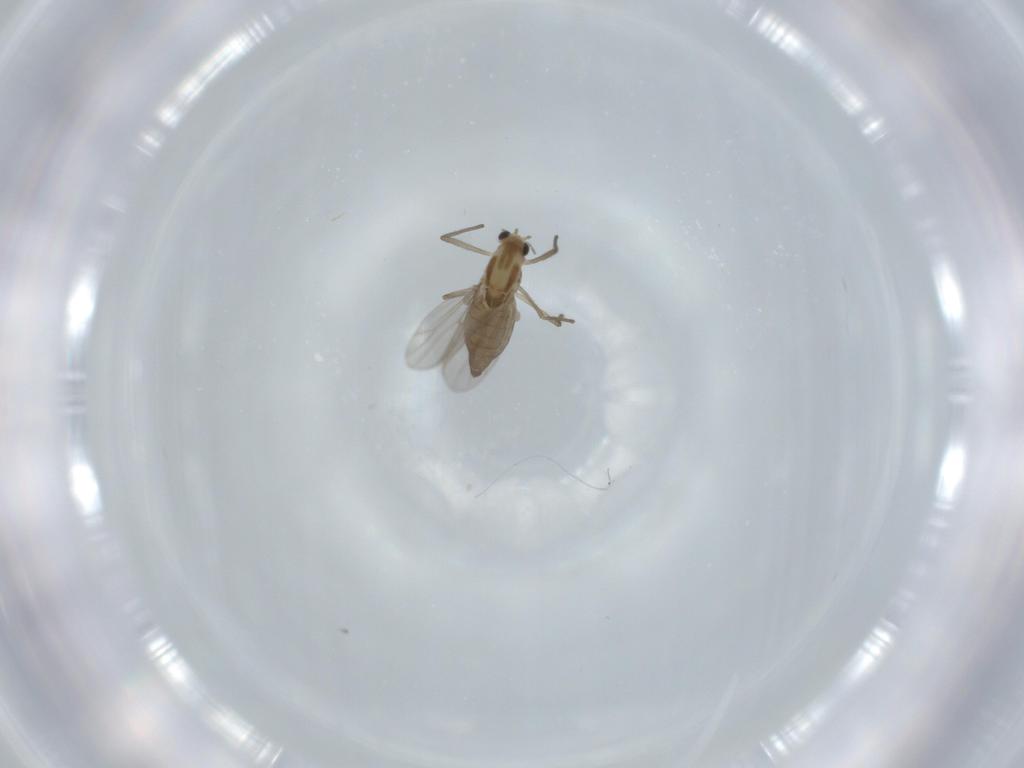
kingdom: Animalia
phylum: Arthropoda
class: Insecta
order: Diptera
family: Chironomidae
